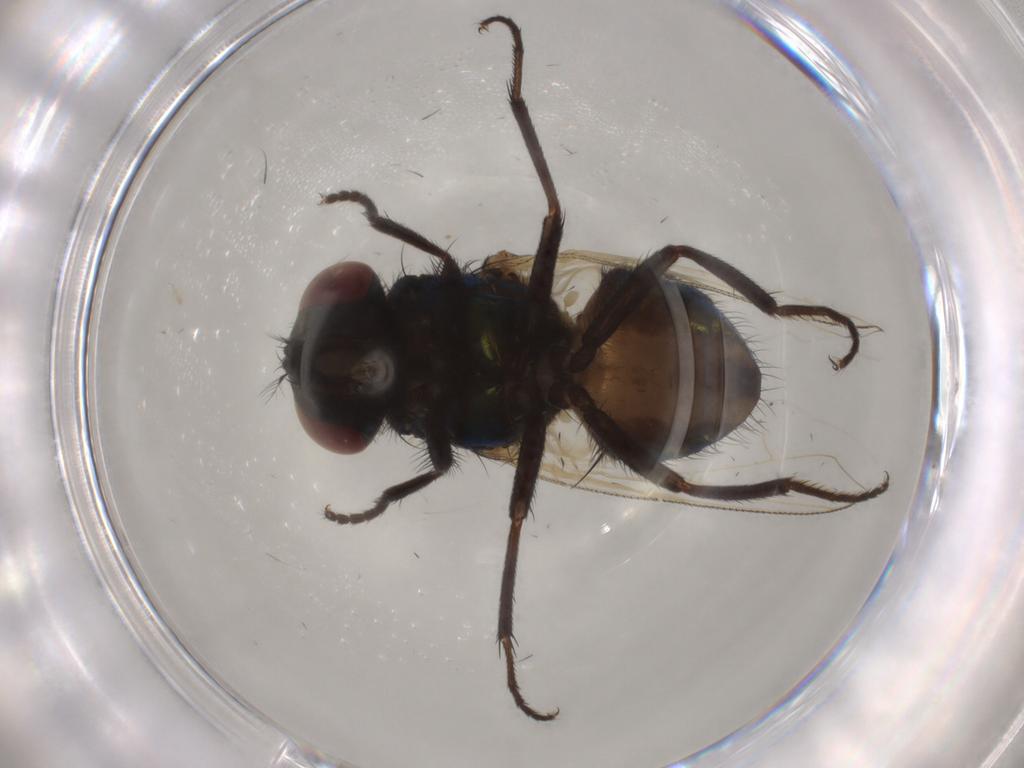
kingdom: Animalia
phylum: Arthropoda
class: Insecta
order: Diptera
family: Muscidae
